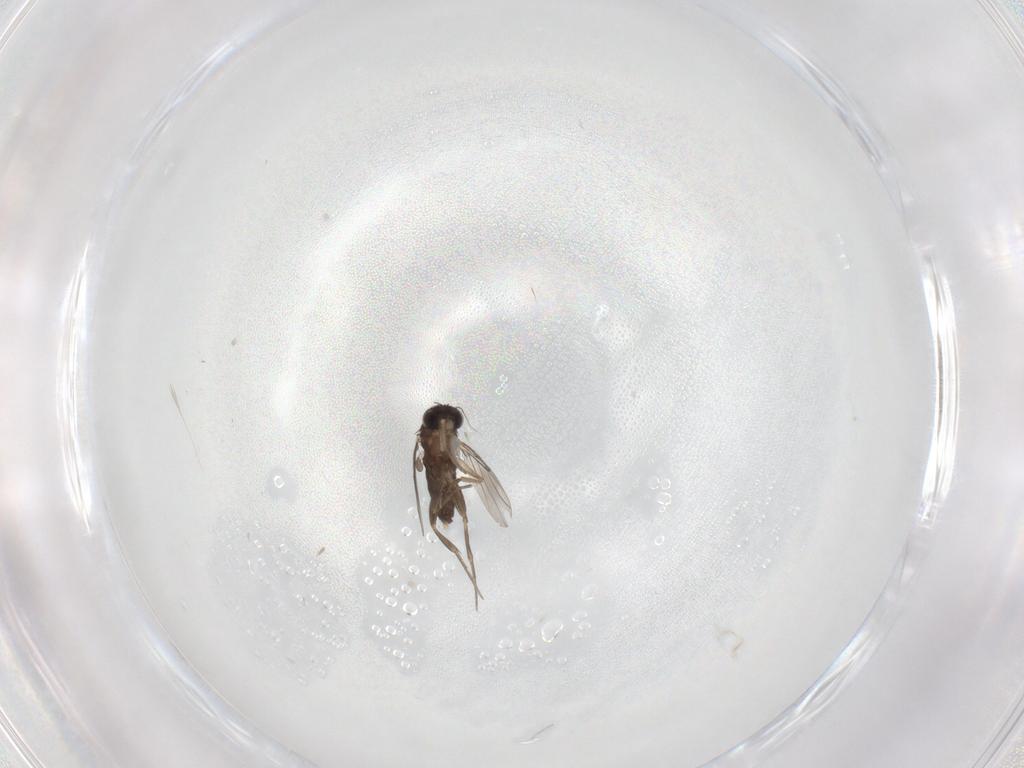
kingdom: Animalia
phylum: Arthropoda
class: Insecta
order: Diptera
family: Phoridae
